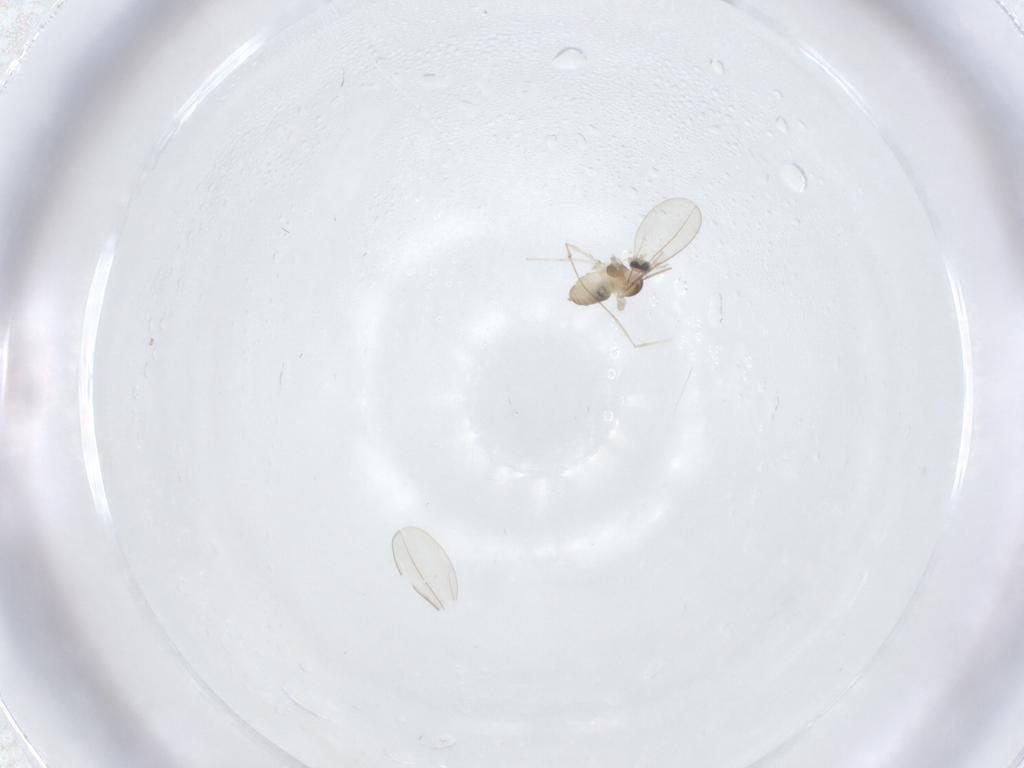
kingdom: Animalia
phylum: Arthropoda
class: Insecta
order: Diptera
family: Cecidomyiidae
